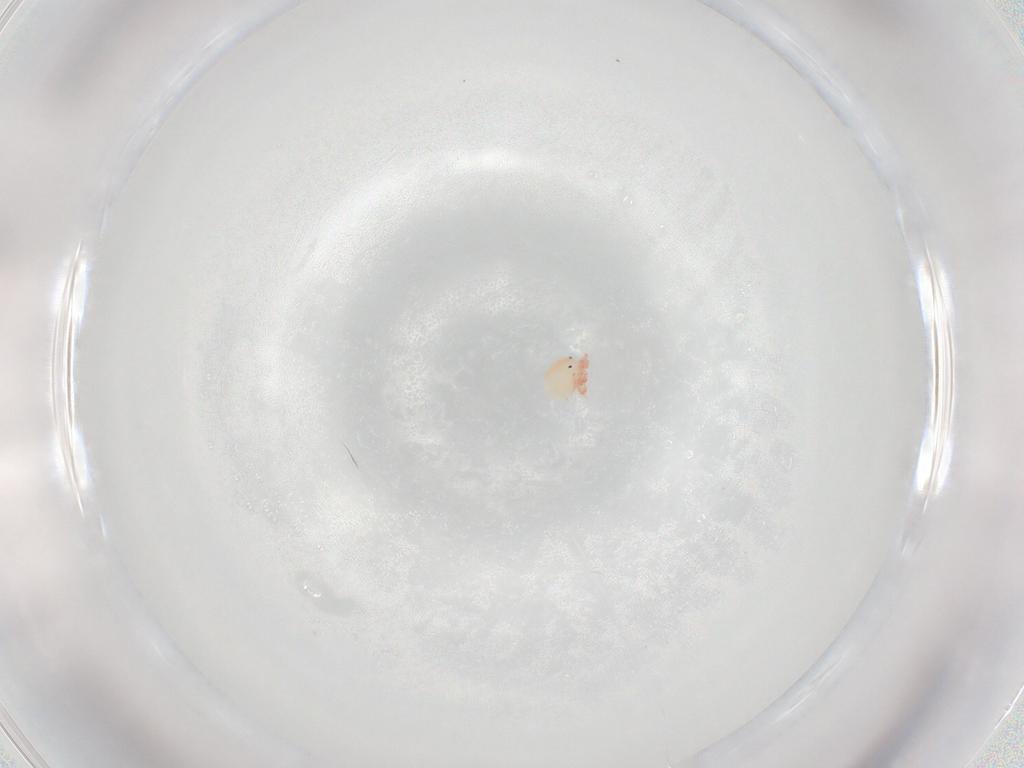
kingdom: Animalia
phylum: Arthropoda
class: Arachnida
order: Trombidiformes
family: Lebertiidae
